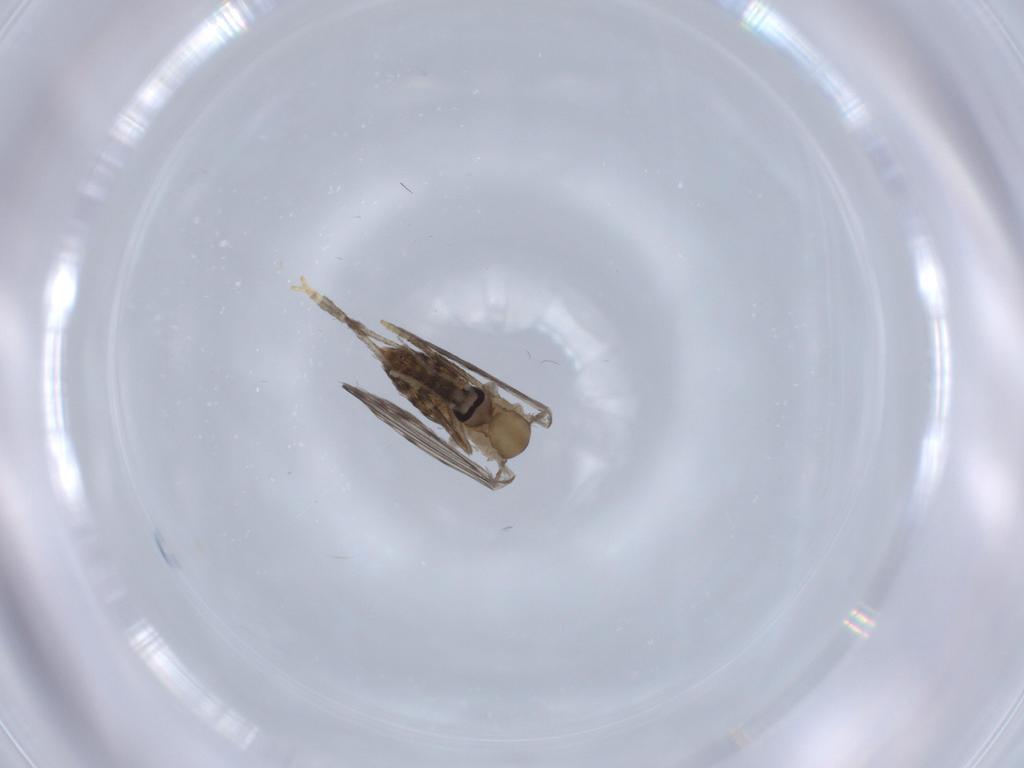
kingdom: Animalia
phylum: Arthropoda
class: Insecta
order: Diptera
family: Psychodidae
